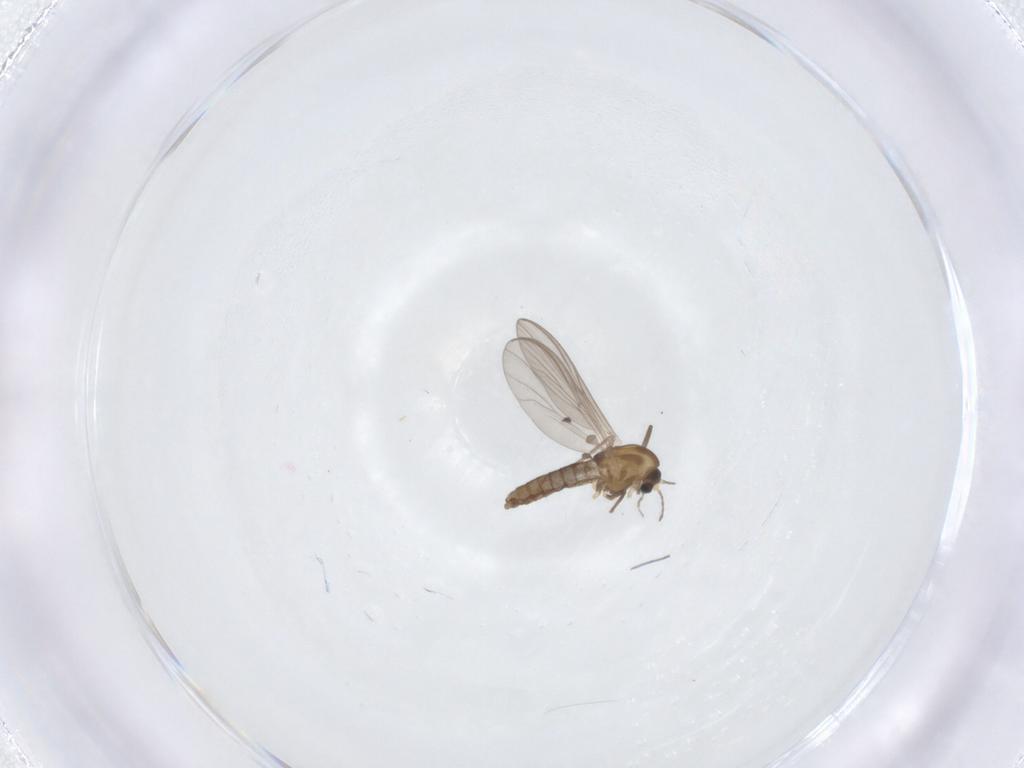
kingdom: Animalia
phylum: Arthropoda
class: Insecta
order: Diptera
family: Chironomidae
